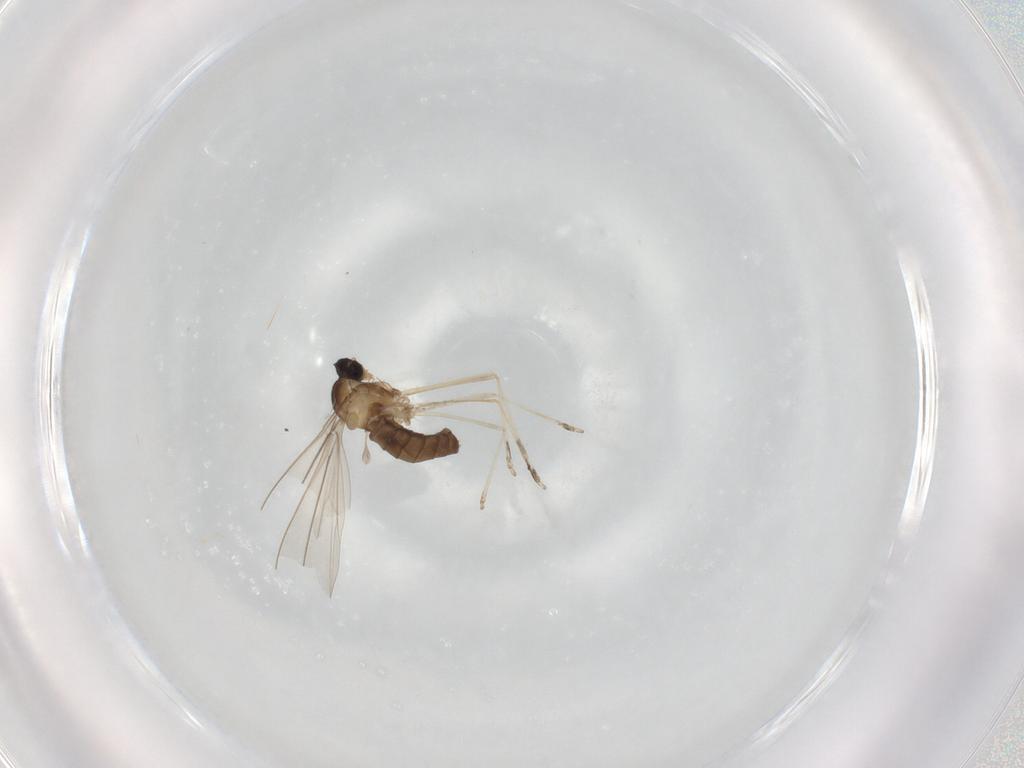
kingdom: Animalia
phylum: Arthropoda
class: Insecta
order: Diptera
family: Cecidomyiidae
